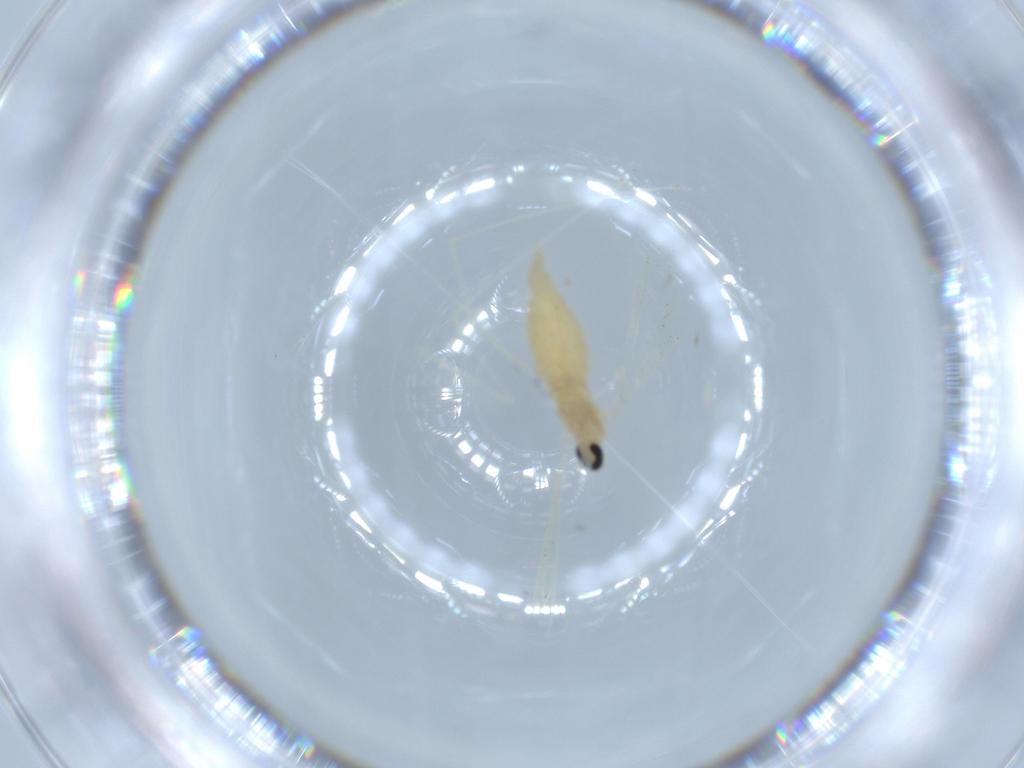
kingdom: Animalia
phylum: Arthropoda
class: Insecta
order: Diptera
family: Cecidomyiidae
